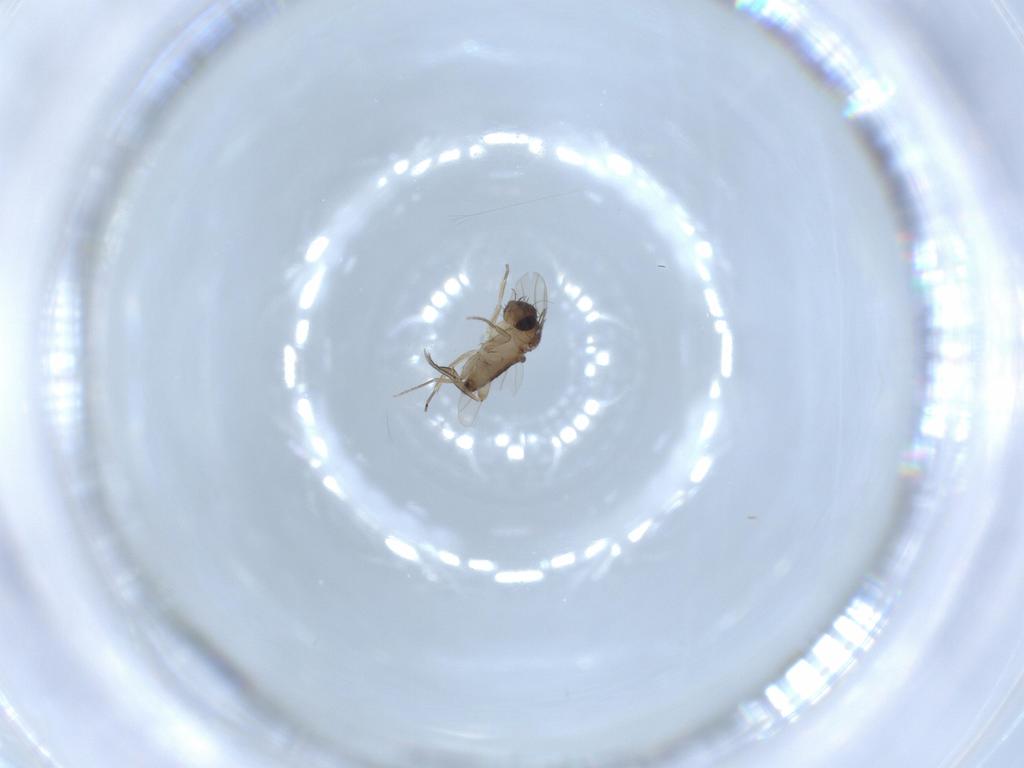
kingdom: Animalia
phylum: Arthropoda
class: Insecta
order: Diptera
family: Phoridae
